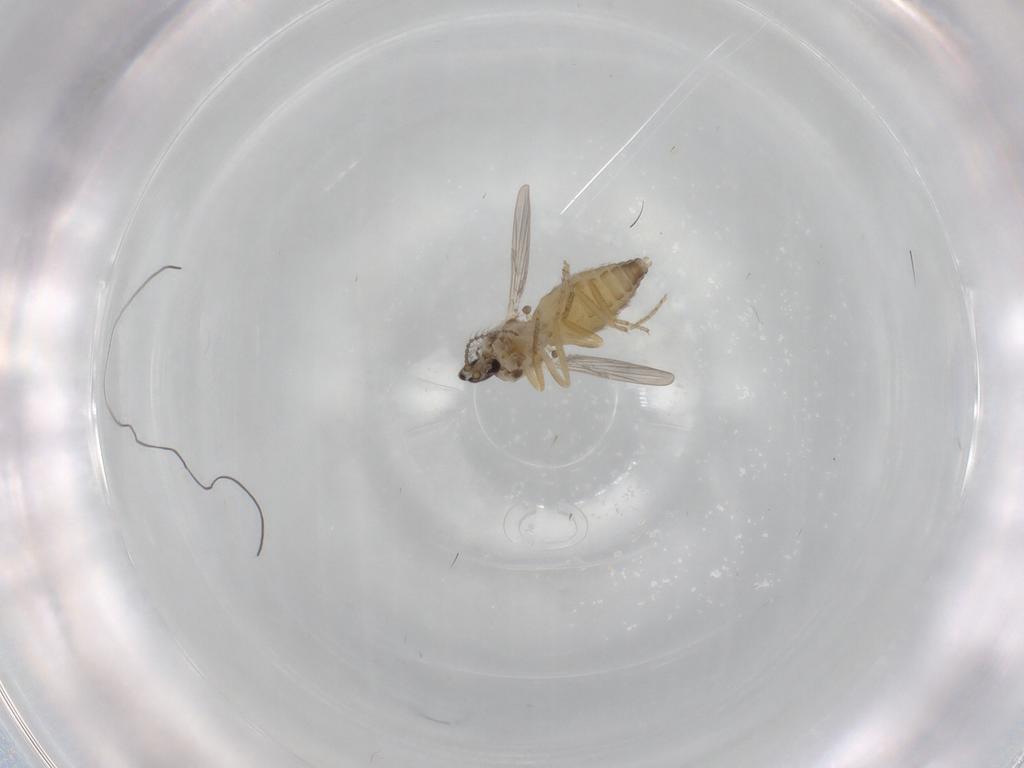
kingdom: Animalia
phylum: Arthropoda
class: Insecta
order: Diptera
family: Ceratopogonidae
